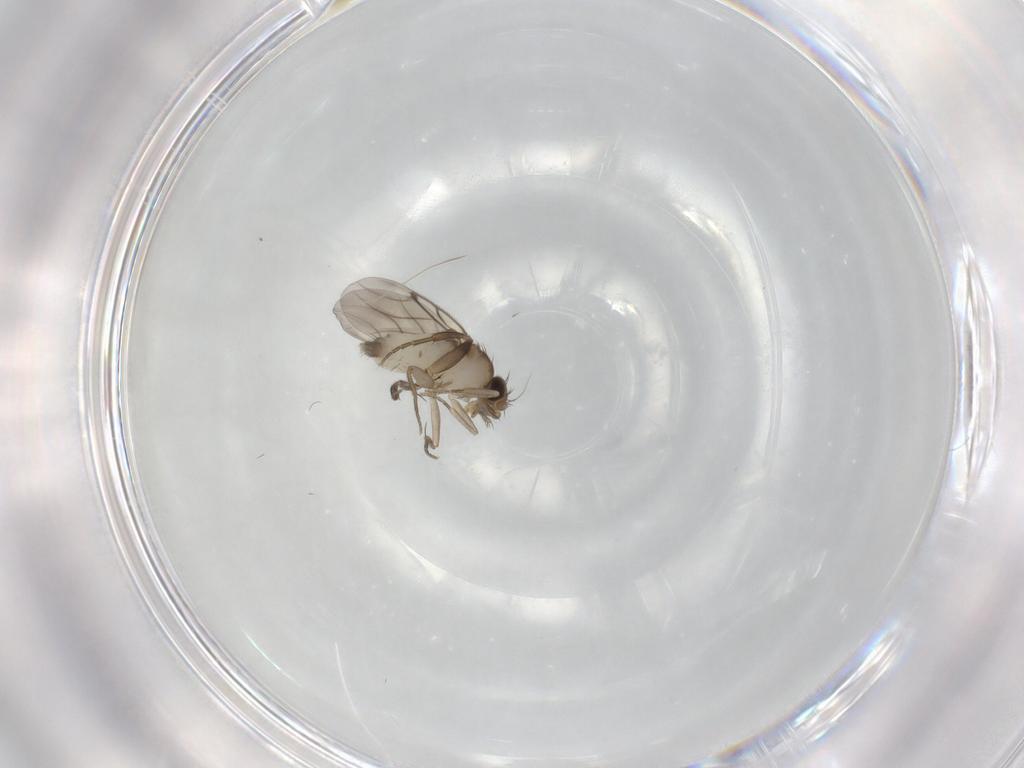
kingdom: Animalia
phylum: Arthropoda
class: Insecta
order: Diptera
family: Phoridae
